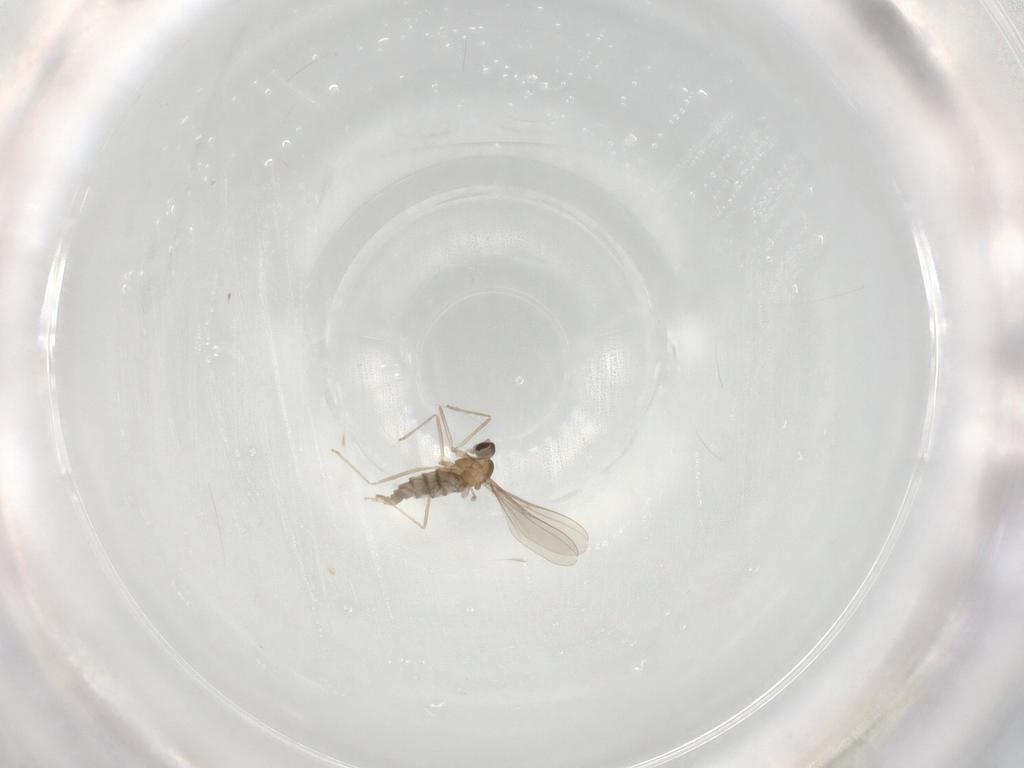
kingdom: Animalia
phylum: Arthropoda
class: Insecta
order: Diptera
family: Cecidomyiidae
